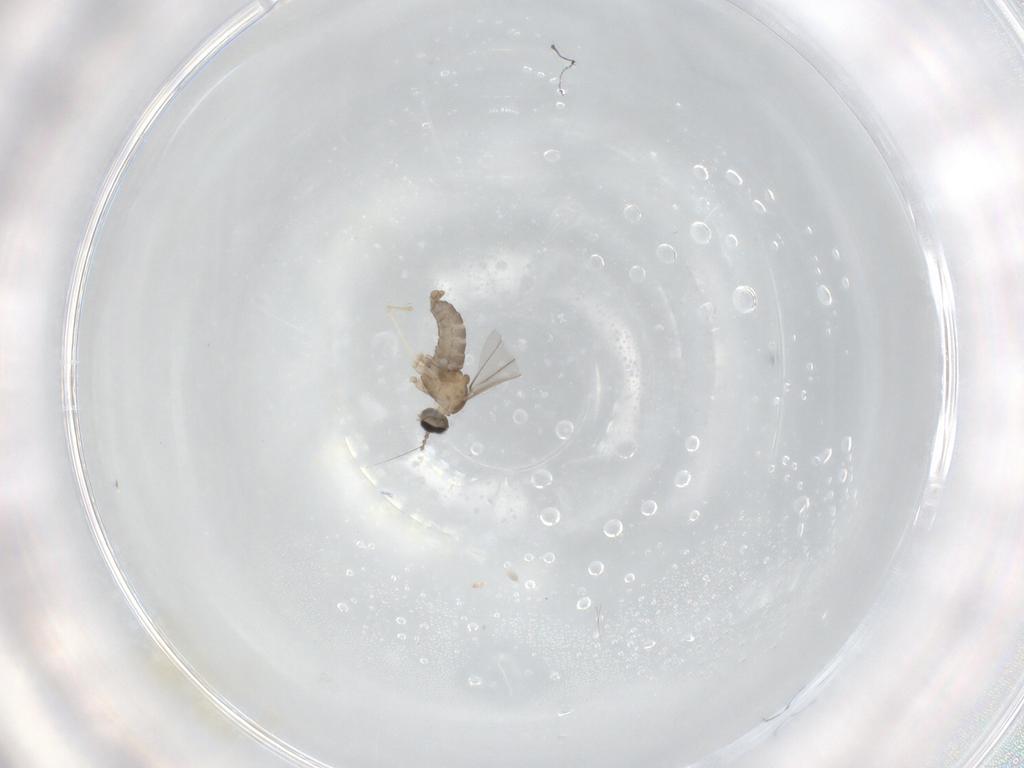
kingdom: Animalia
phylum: Arthropoda
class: Insecta
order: Diptera
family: Cecidomyiidae
